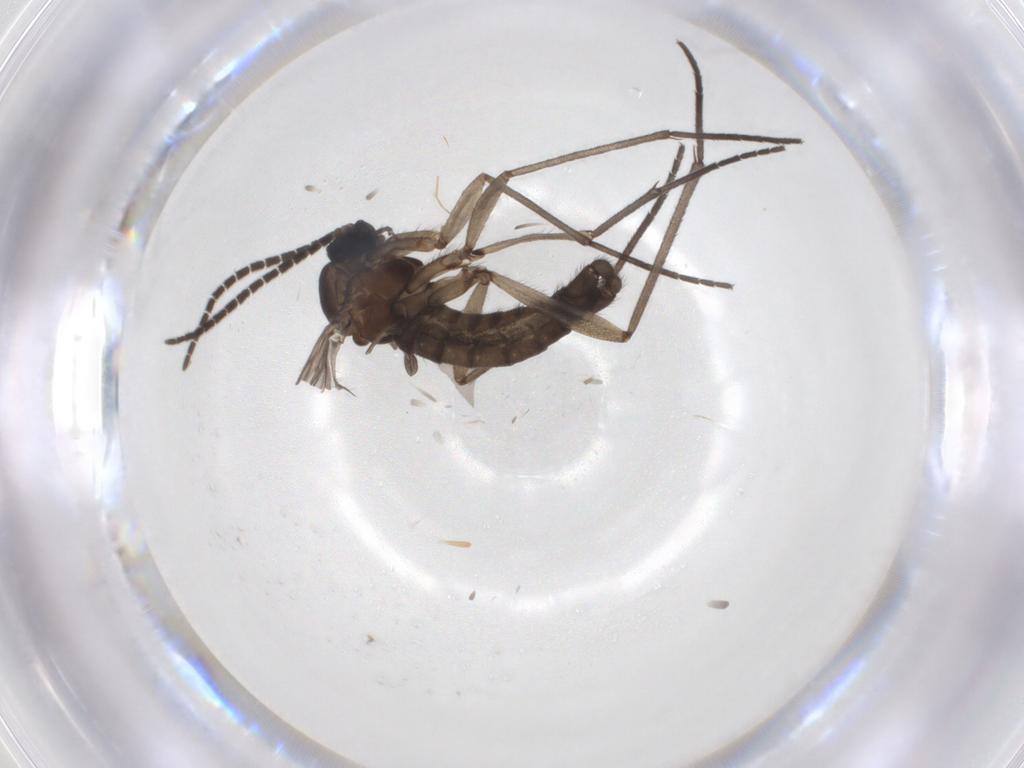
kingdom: Animalia
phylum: Arthropoda
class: Insecta
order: Diptera
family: Sciaridae
